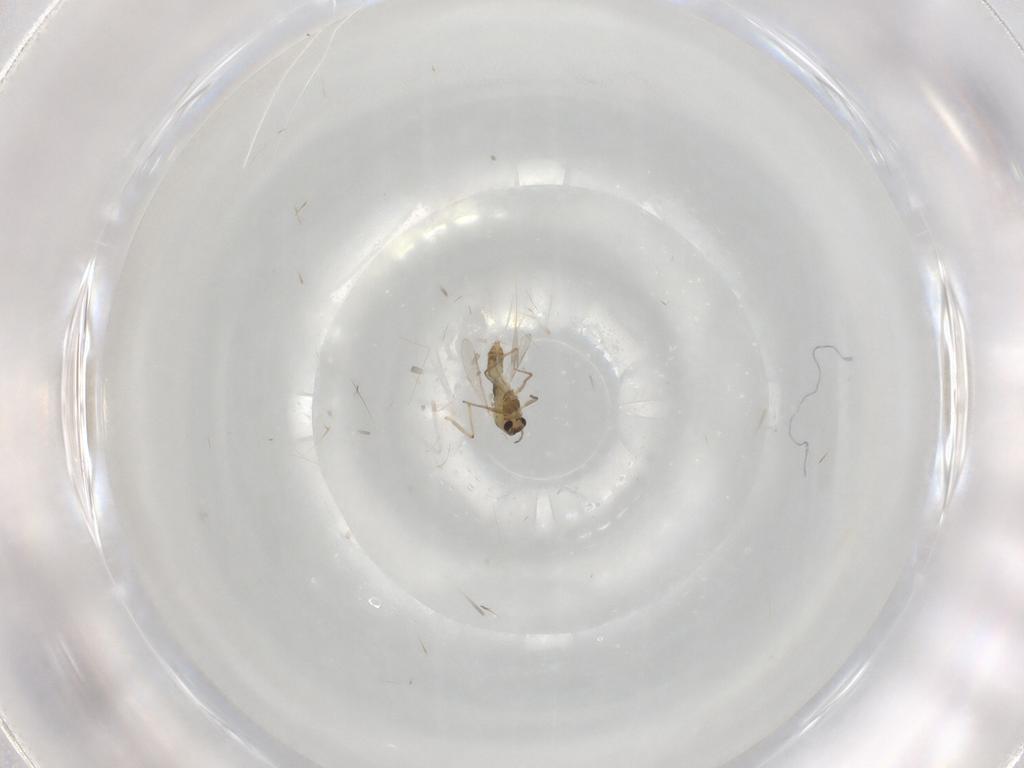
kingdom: Animalia
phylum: Arthropoda
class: Insecta
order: Diptera
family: Chironomidae
